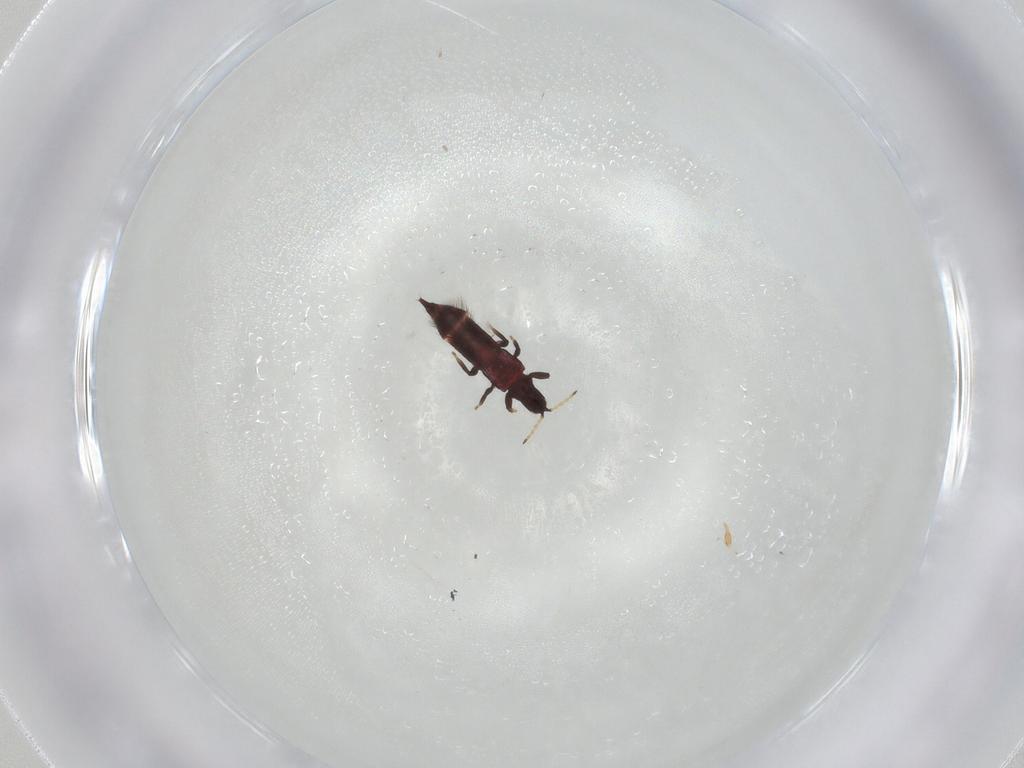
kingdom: Animalia
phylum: Arthropoda
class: Insecta
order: Thysanoptera
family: Phlaeothripidae
